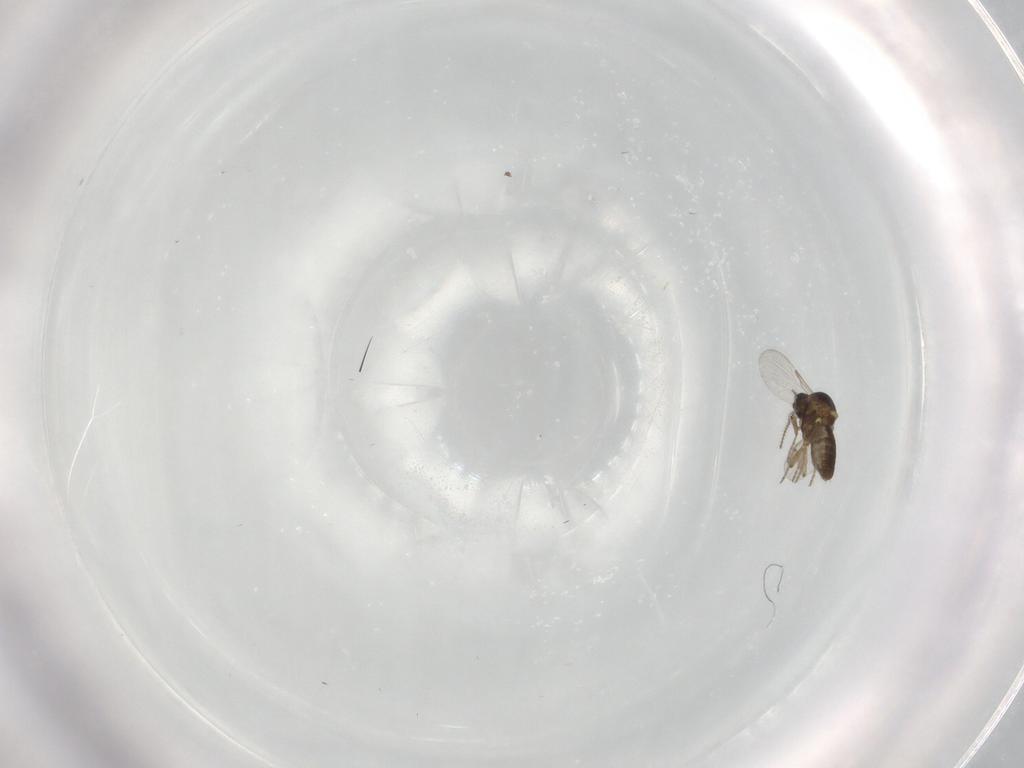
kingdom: Animalia
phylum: Arthropoda
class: Insecta
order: Diptera
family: Ceratopogonidae
